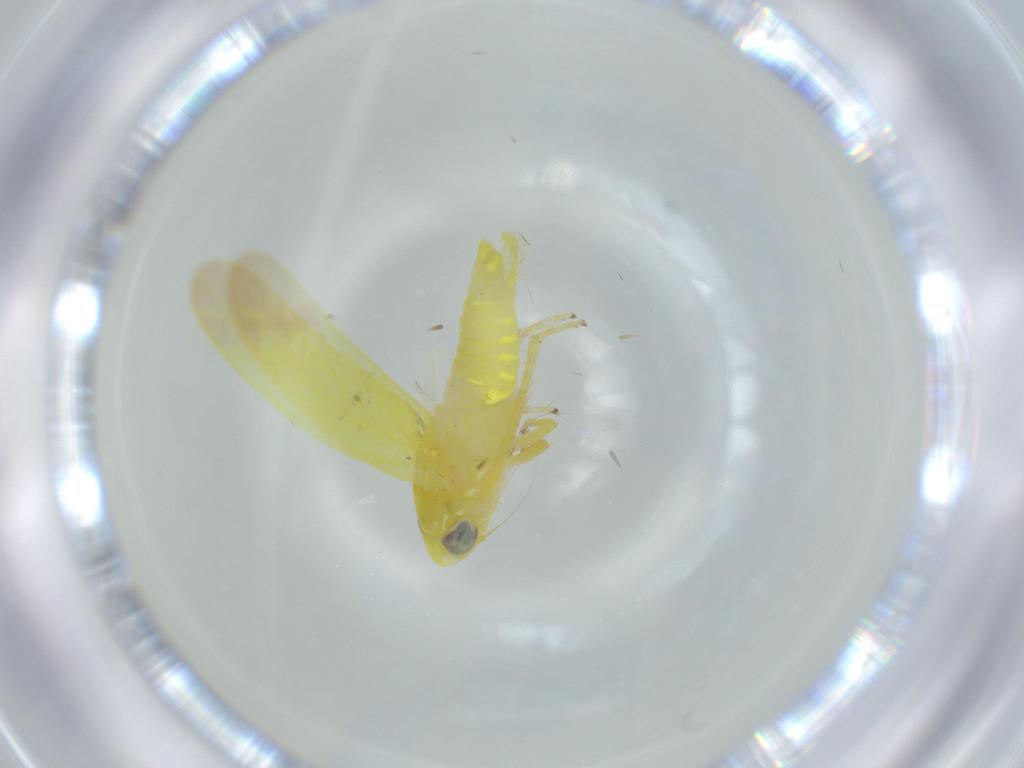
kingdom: Animalia
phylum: Arthropoda
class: Insecta
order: Hemiptera
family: Cicadellidae
